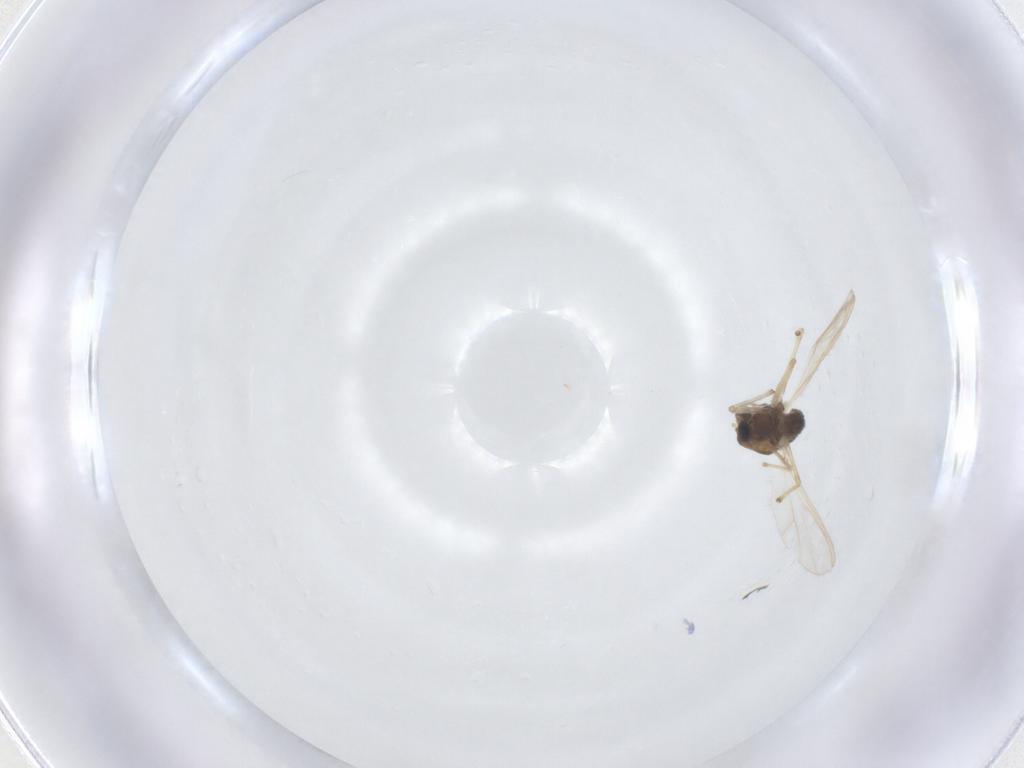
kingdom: Animalia
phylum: Arthropoda
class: Insecta
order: Diptera
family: Chironomidae
